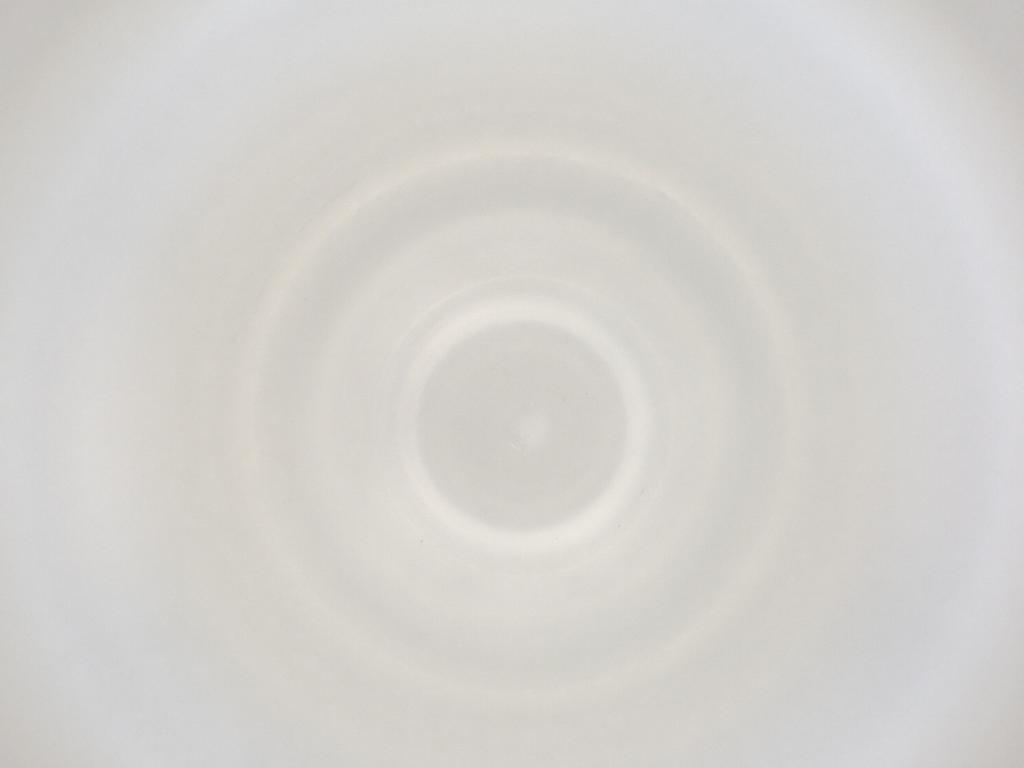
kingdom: Animalia
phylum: Arthropoda
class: Insecta
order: Diptera
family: Cecidomyiidae
